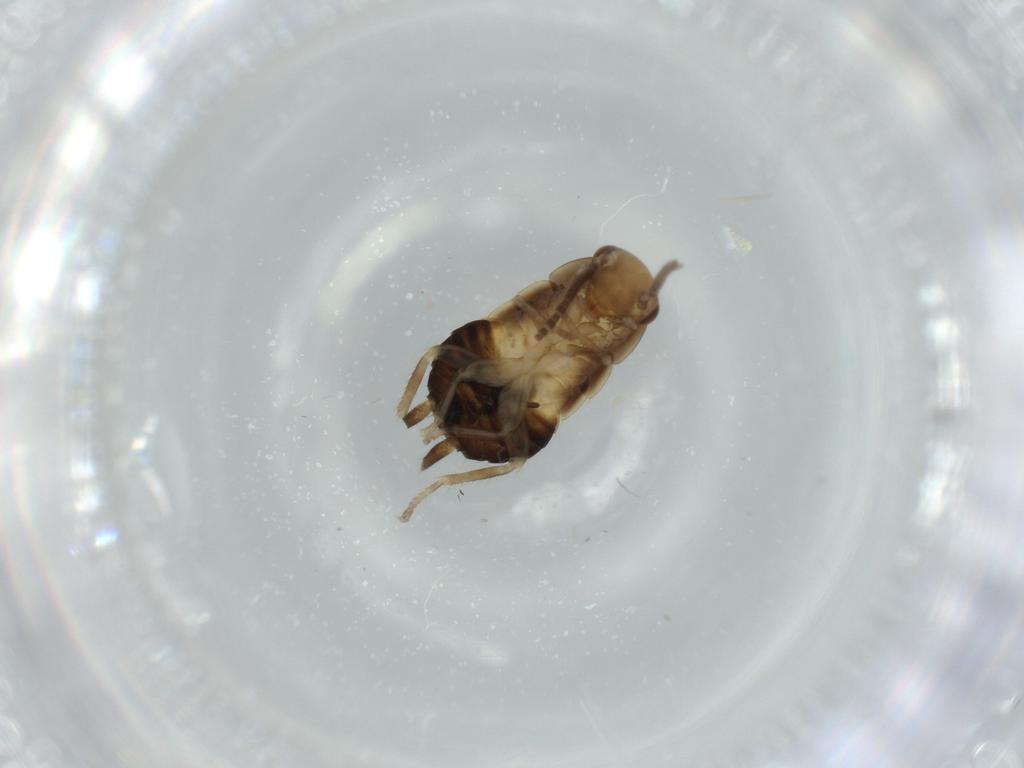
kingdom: Animalia
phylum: Arthropoda
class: Insecta
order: Blattodea
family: Ectobiidae
